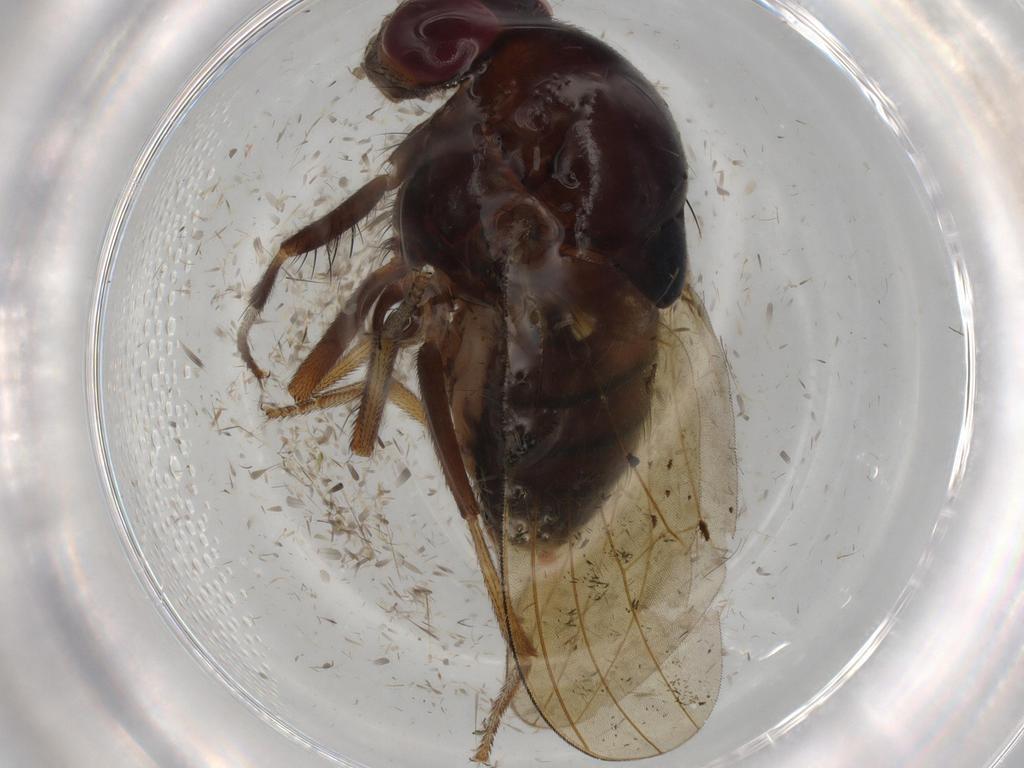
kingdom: Animalia
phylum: Arthropoda
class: Insecta
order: Diptera
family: Cecidomyiidae
